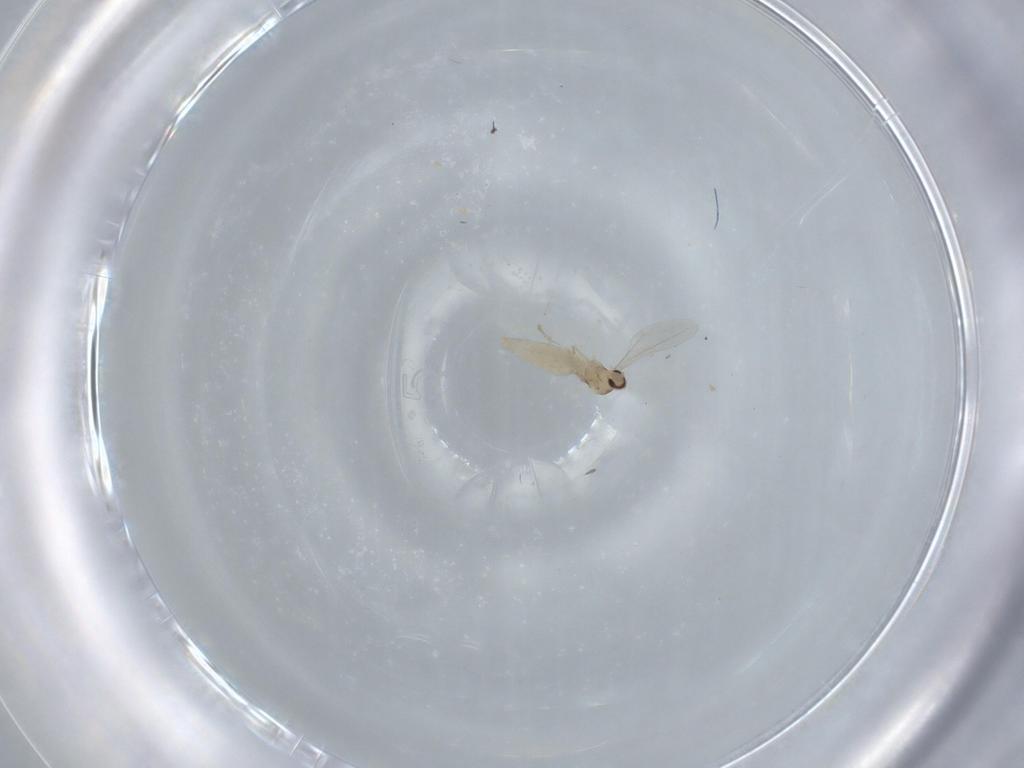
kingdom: Animalia
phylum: Arthropoda
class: Insecta
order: Diptera
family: Cecidomyiidae
